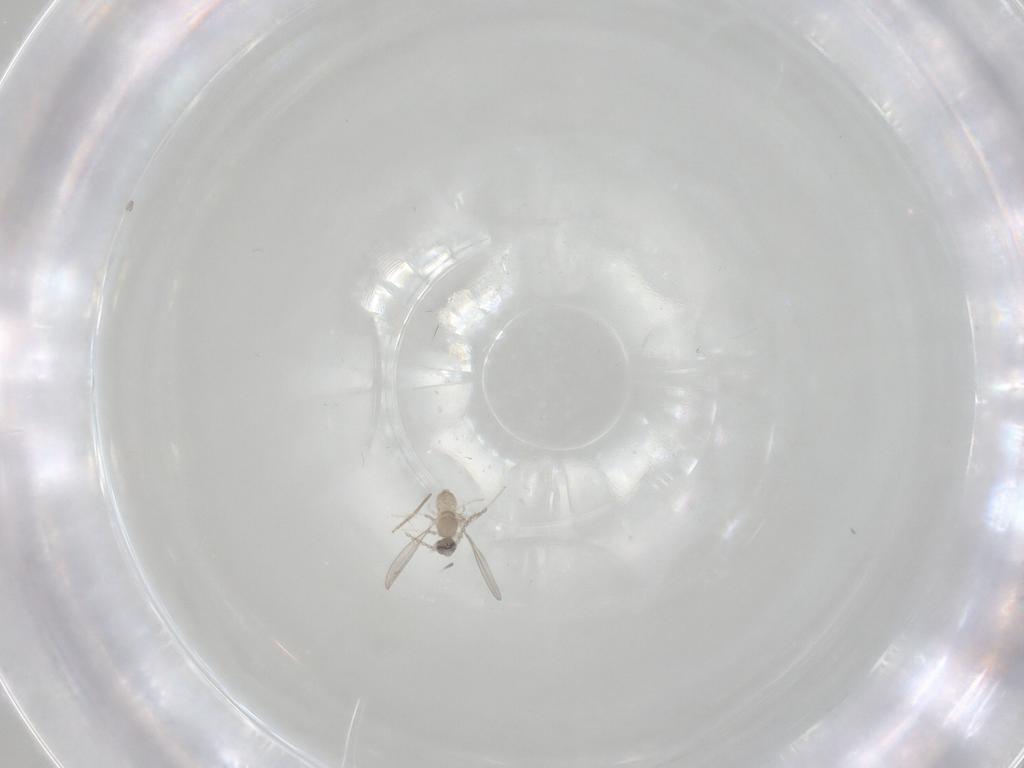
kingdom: Animalia
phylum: Arthropoda
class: Insecta
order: Diptera
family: Cecidomyiidae
